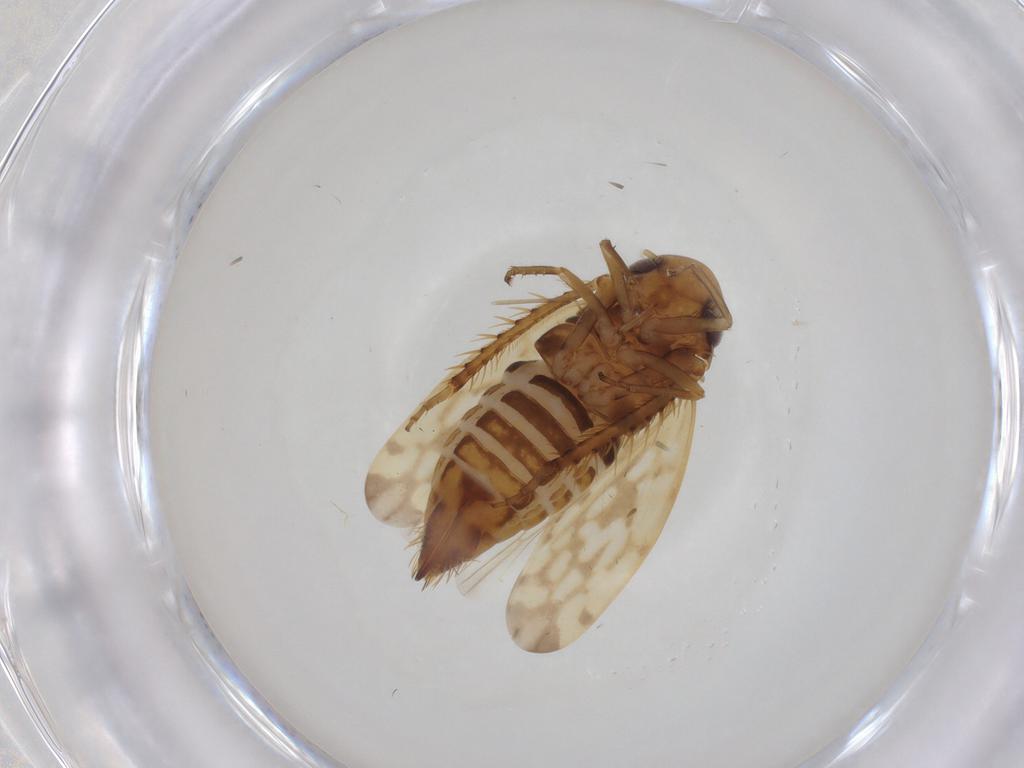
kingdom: Animalia
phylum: Arthropoda
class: Insecta
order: Hemiptera
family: Cicadellidae
